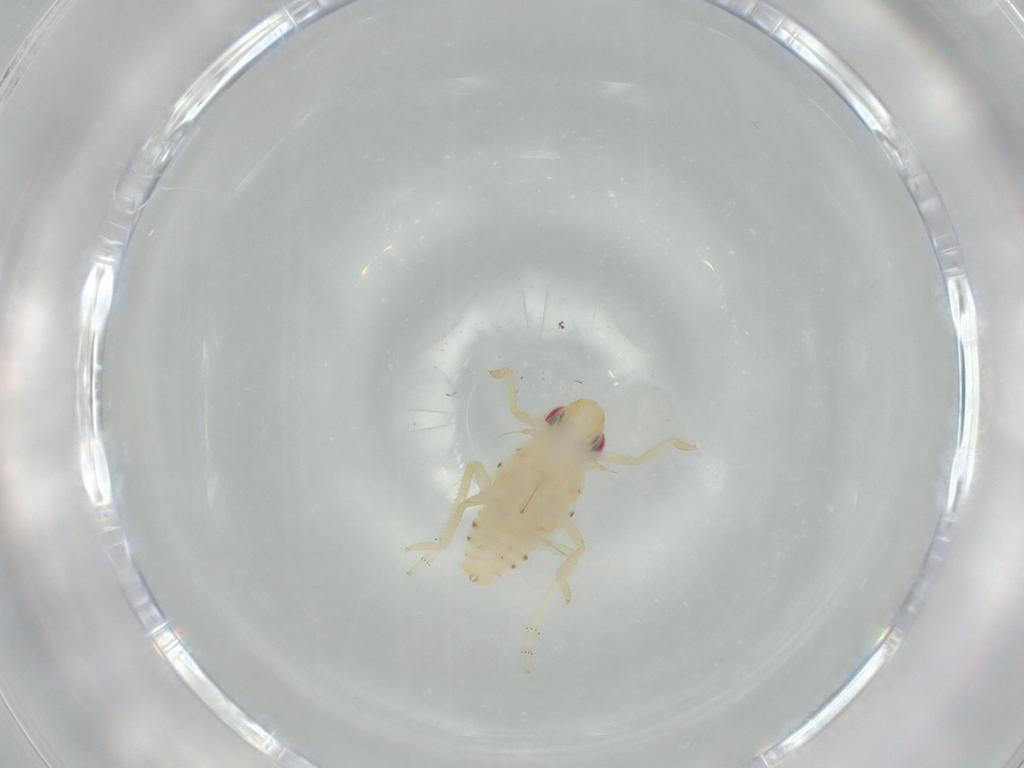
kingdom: Animalia
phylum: Arthropoda
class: Insecta
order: Hemiptera
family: Tropiduchidae
